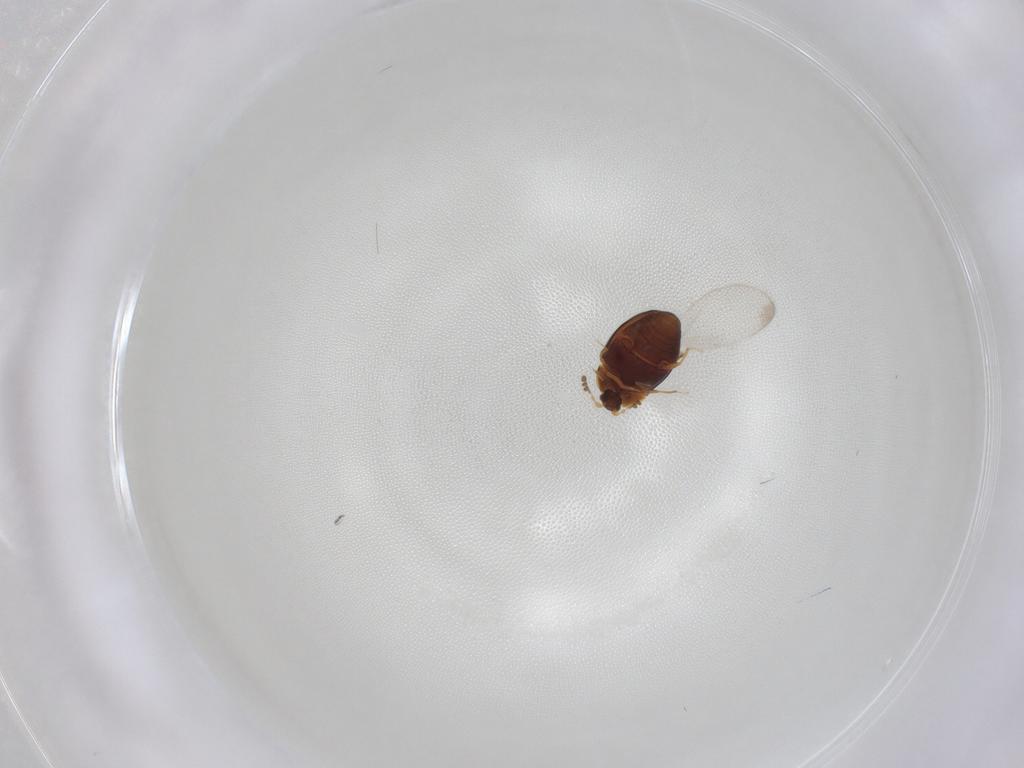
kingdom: Animalia
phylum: Arthropoda
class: Insecta
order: Coleoptera
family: Corylophidae
